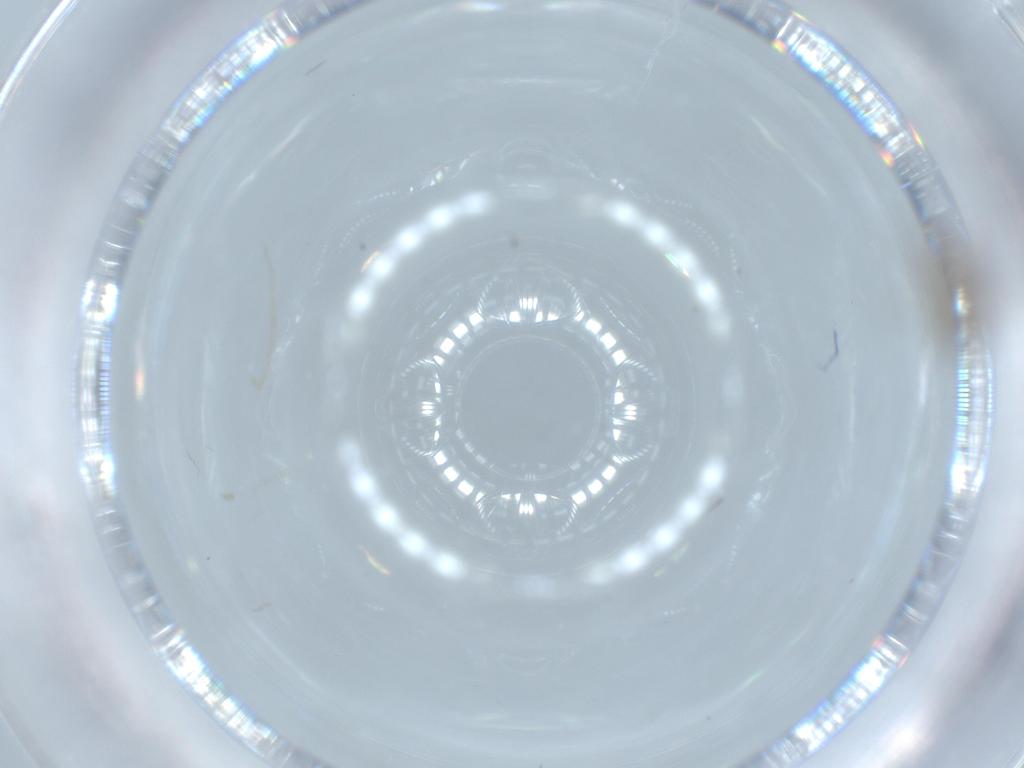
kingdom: Animalia
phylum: Arthropoda
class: Insecta
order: Diptera
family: Chironomidae
